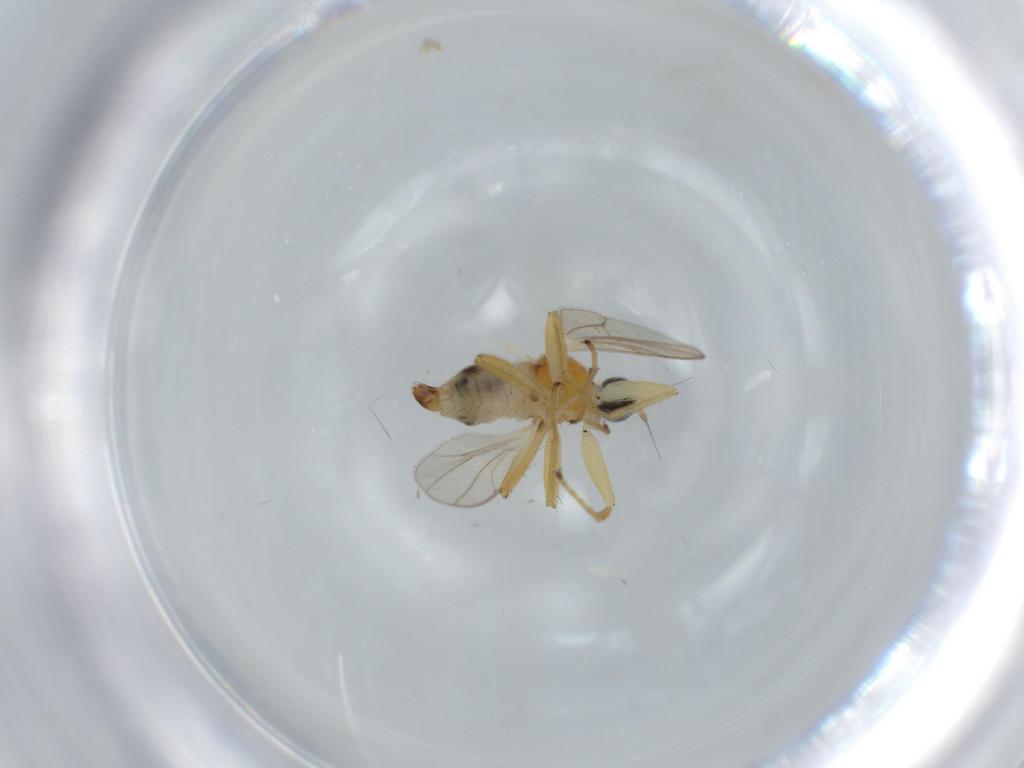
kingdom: Animalia
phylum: Arthropoda
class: Insecta
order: Diptera
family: Hybotidae
